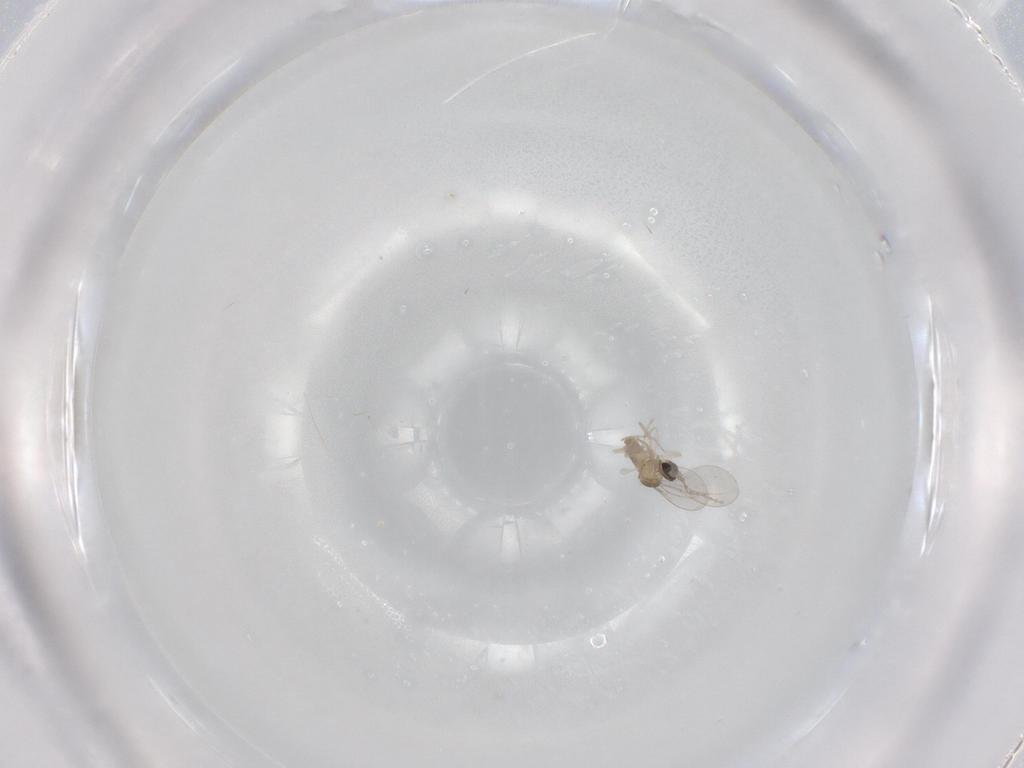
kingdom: Animalia
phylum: Arthropoda
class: Insecta
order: Diptera
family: Cecidomyiidae
